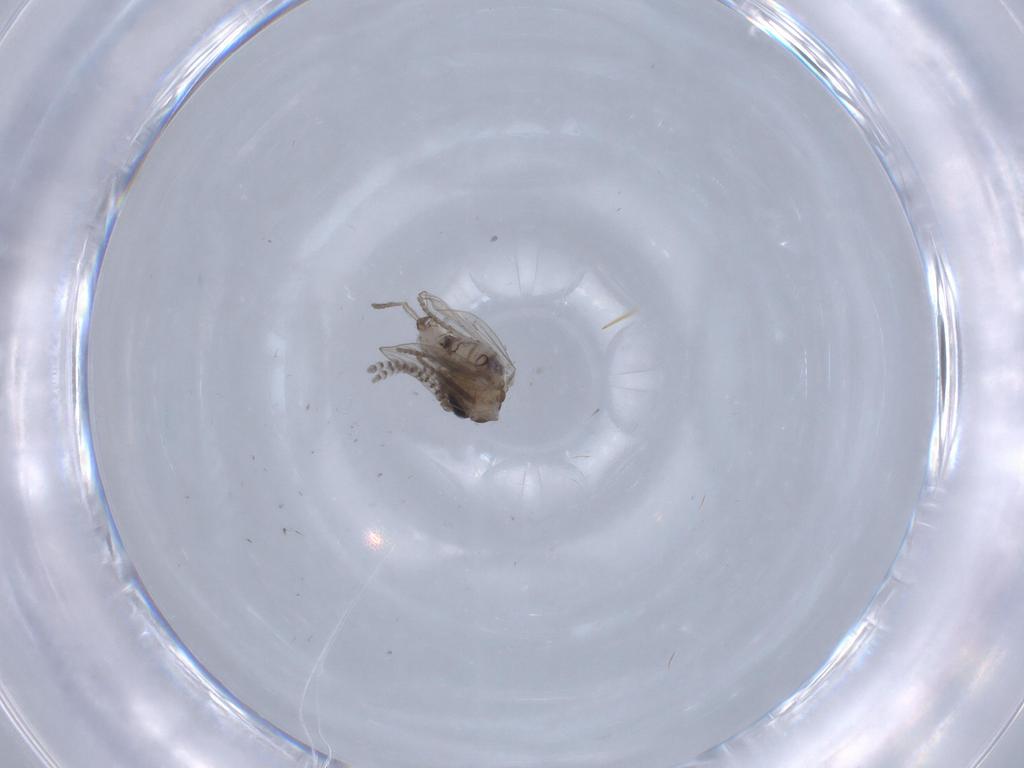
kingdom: Animalia
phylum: Arthropoda
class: Insecta
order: Diptera
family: Psychodidae
